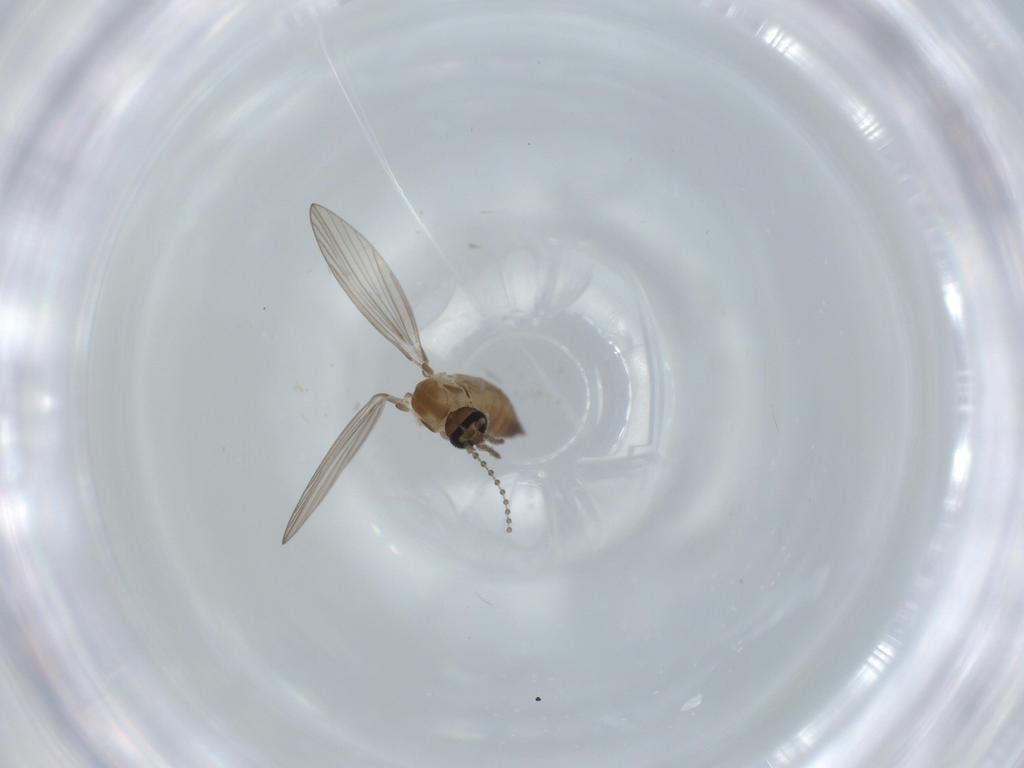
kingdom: Animalia
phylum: Arthropoda
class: Insecta
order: Diptera
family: Psychodidae
